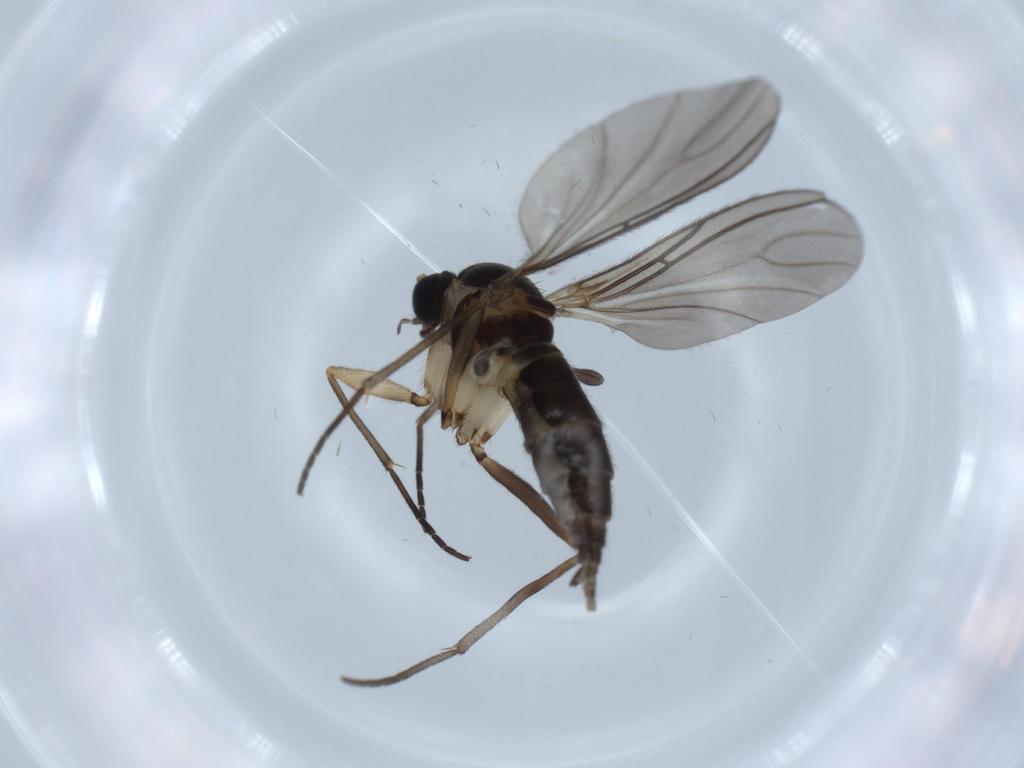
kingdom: Animalia
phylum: Arthropoda
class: Insecta
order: Diptera
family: Sciaridae
